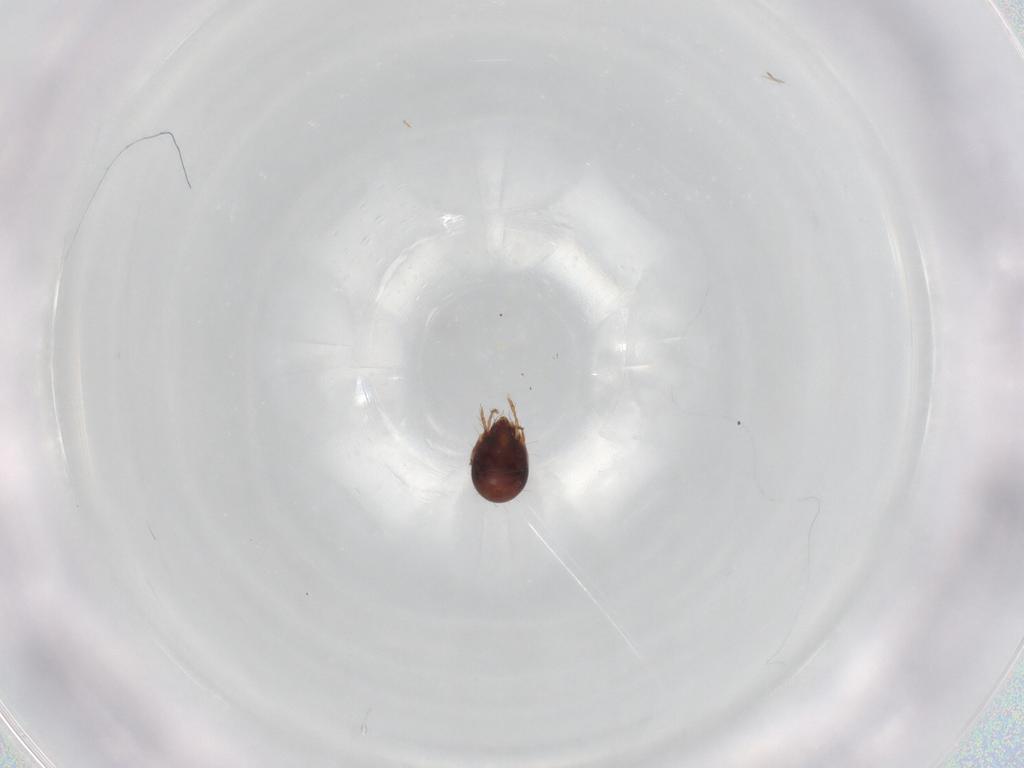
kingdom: Animalia
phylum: Arthropoda
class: Arachnida
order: Sarcoptiformes
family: Humerobatidae
